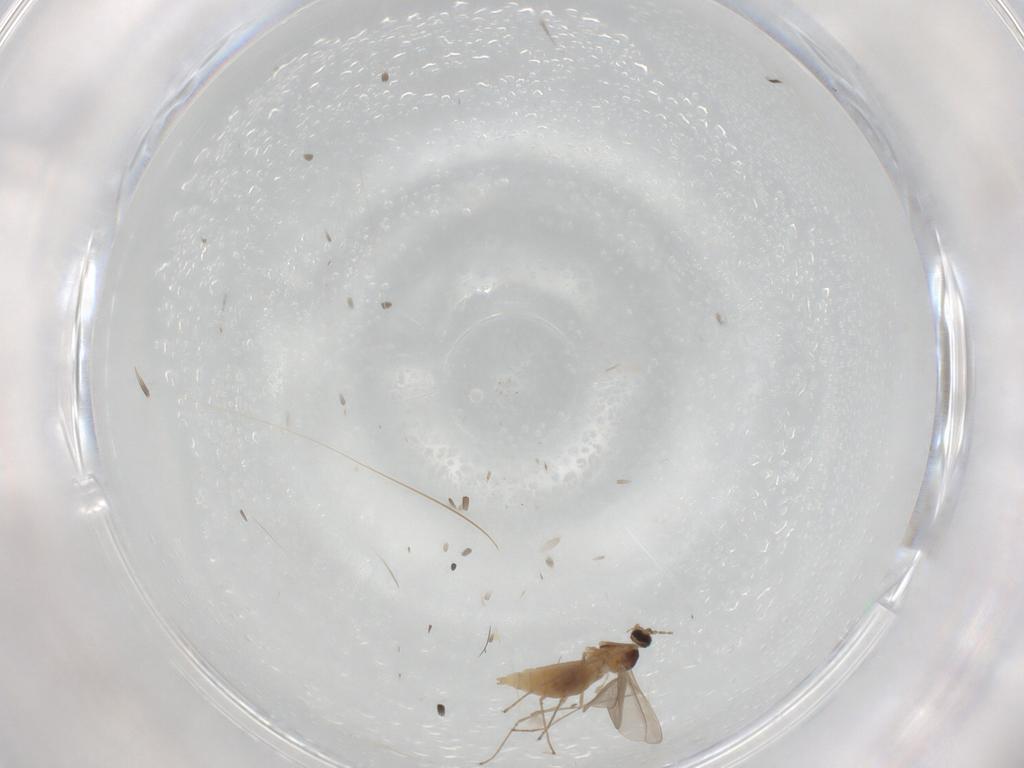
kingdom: Animalia
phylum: Arthropoda
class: Insecta
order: Diptera
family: Cecidomyiidae
